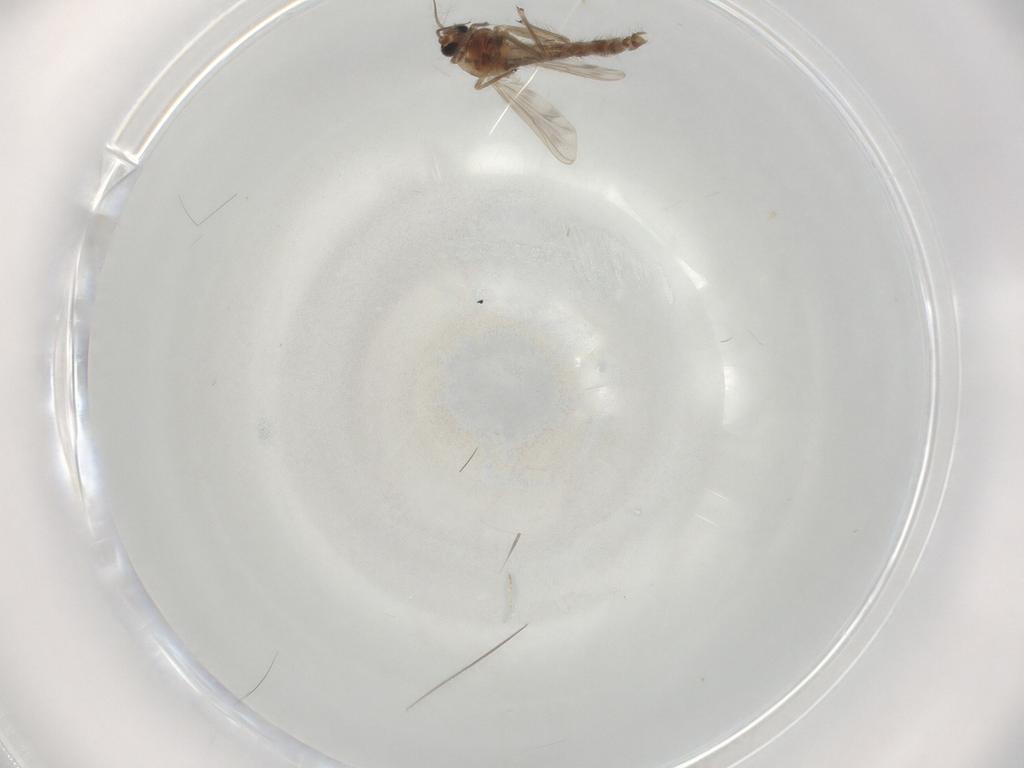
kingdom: Animalia
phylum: Arthropoda
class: Insecta
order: Diptera
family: Chironomidae
